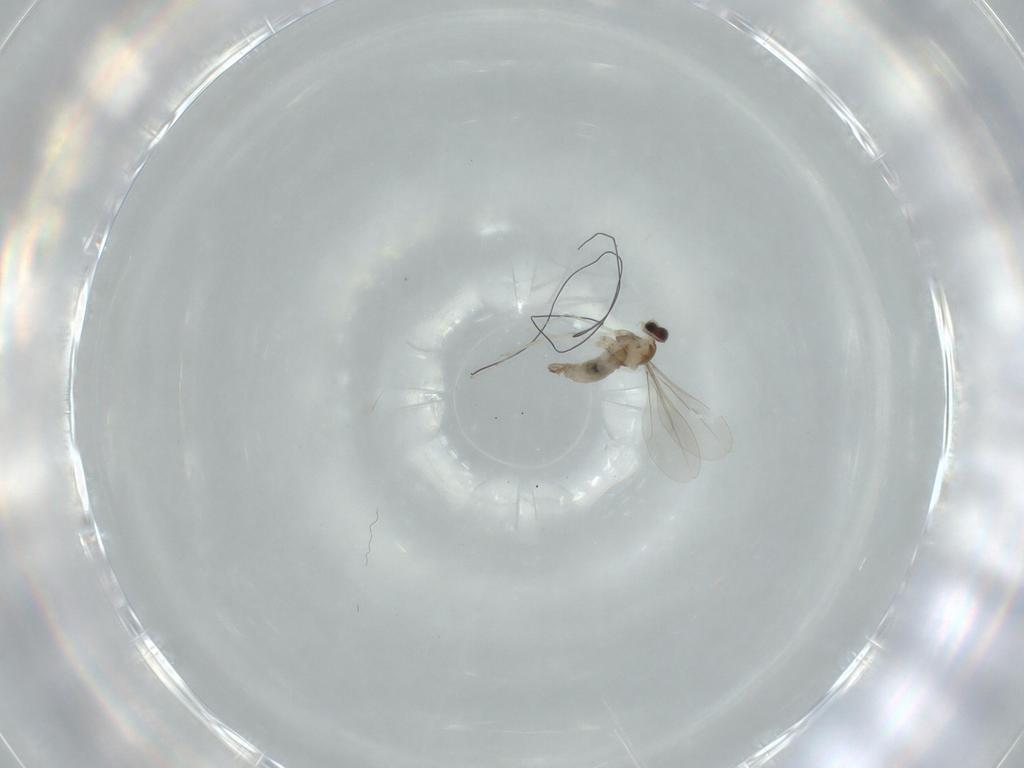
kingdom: Animalia
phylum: Arthropoda
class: Insecta
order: Diptera
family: Cecidomyiidae
